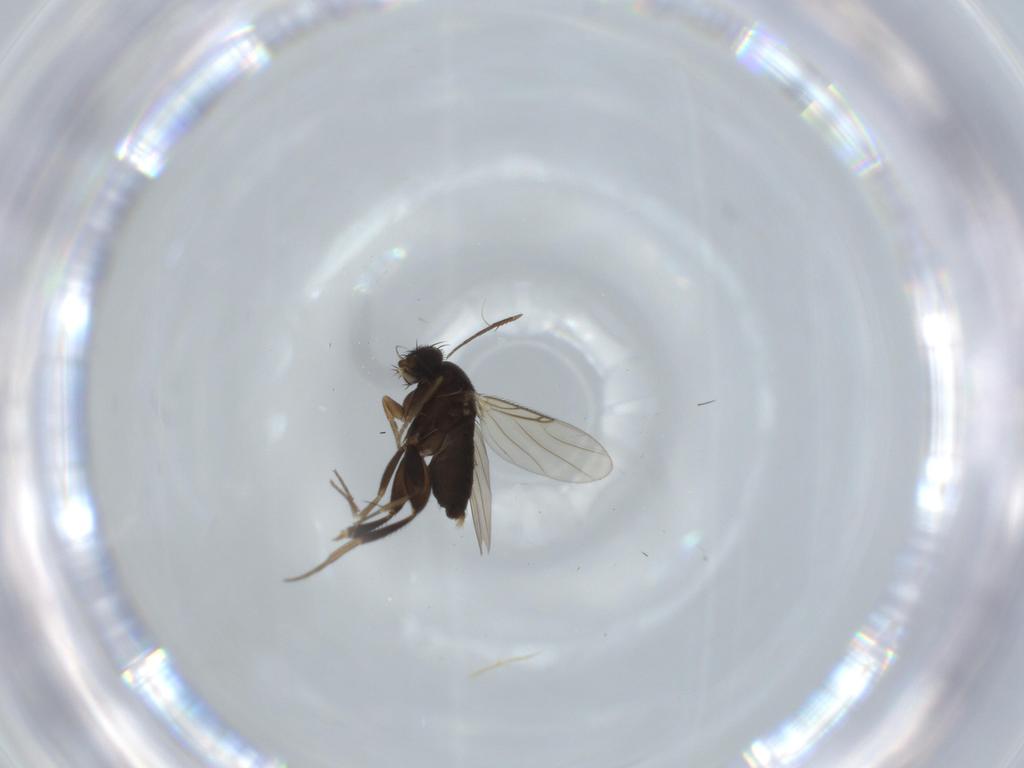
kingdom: Animalia
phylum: Arthropoda
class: Insecta
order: Diptera
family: Phoridae
